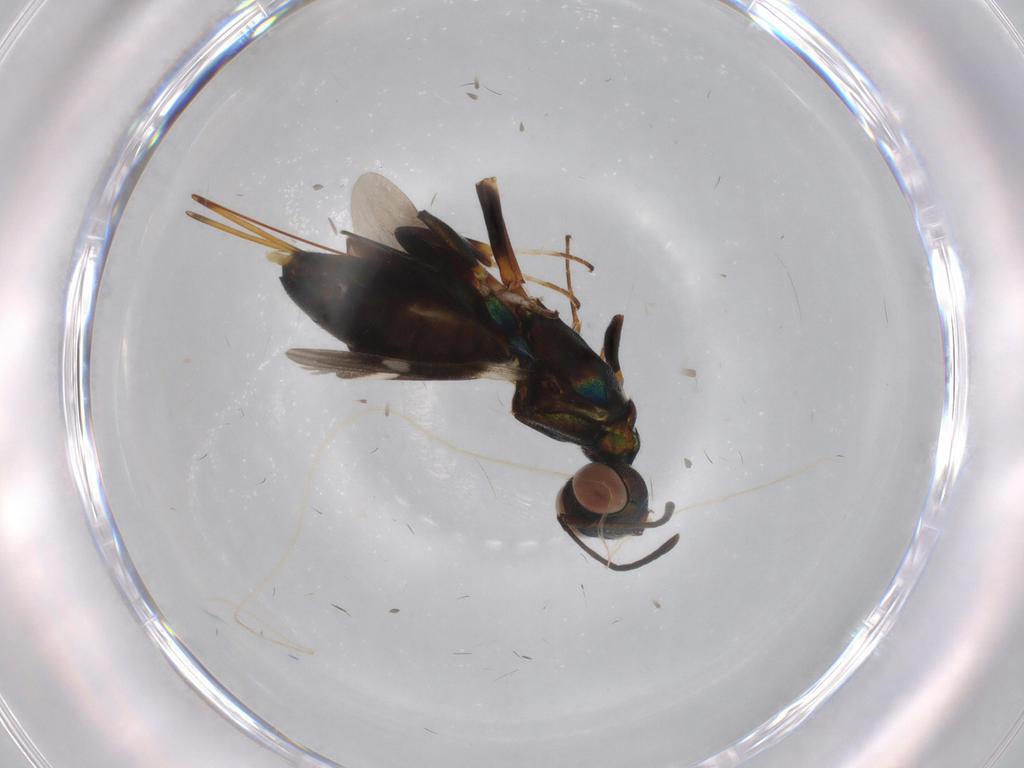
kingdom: Animalia
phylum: Arthropoda
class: Insecta
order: Hymenoptera
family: Eupelmidae
